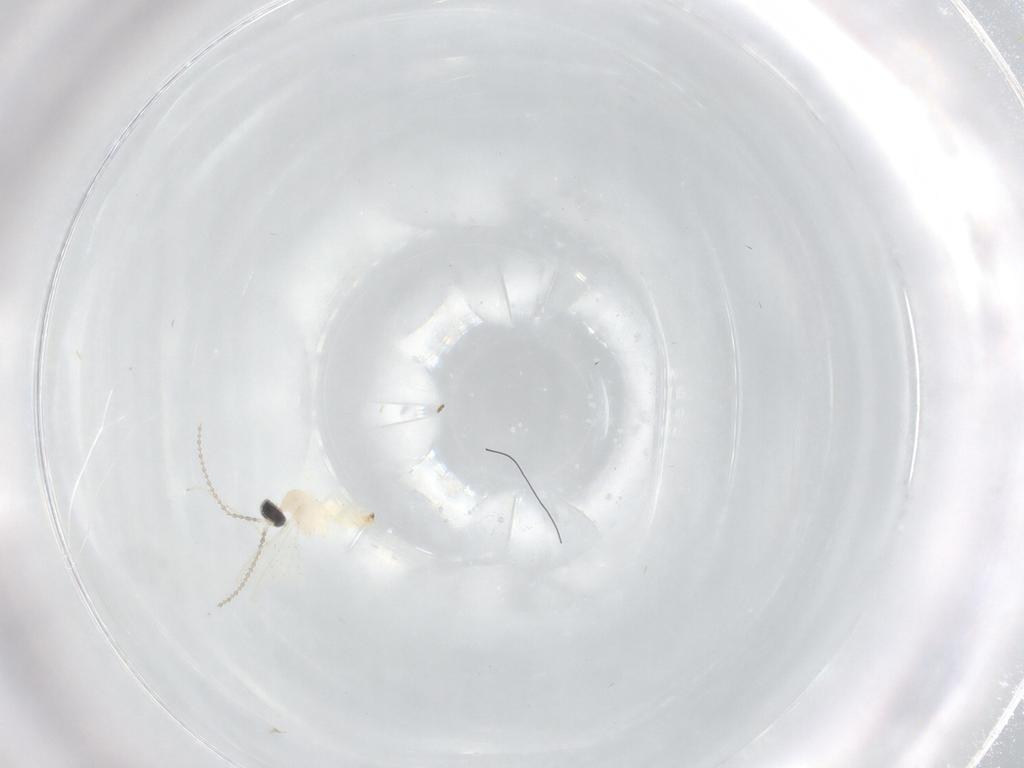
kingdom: Animalia
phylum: Arthropoda
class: Insecta
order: Diptera
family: Cecidomyiidae
